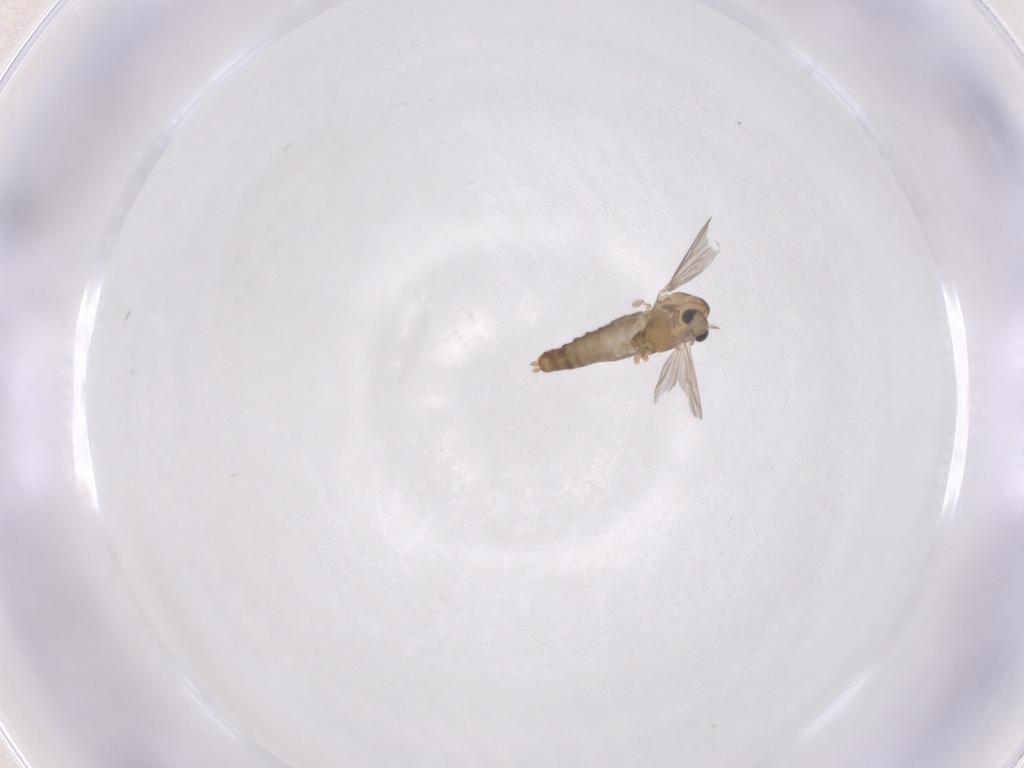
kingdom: Animalia
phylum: Arthropoda
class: Insecta
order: Diptera
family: Chironomidae
